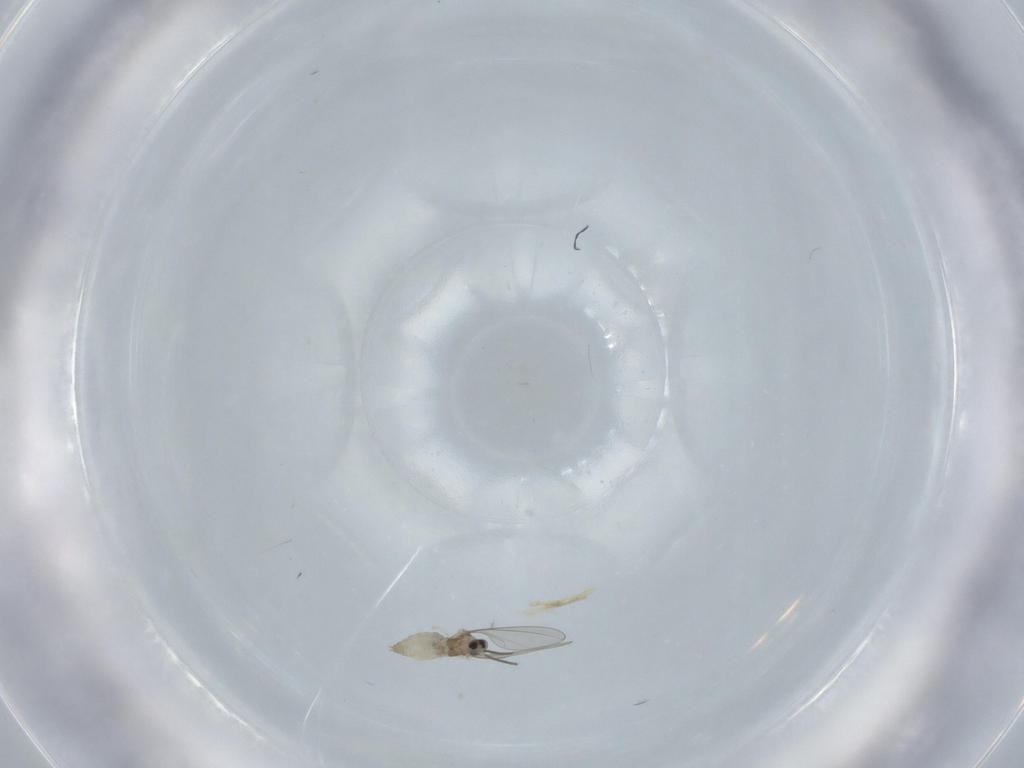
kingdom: Animalia
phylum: Arthropoda
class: Insecta
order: Diptera
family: Cecidomyiidae
